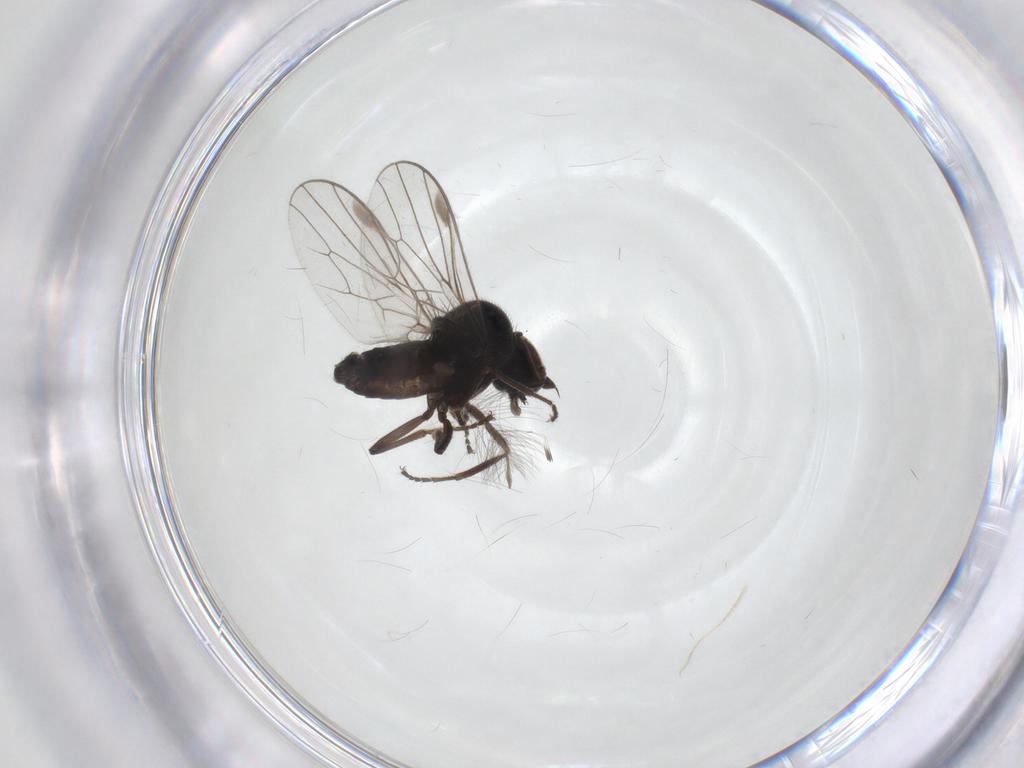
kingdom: Animalia
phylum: Arthropoda
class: Insecta
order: Diptera
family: Hybotidae
